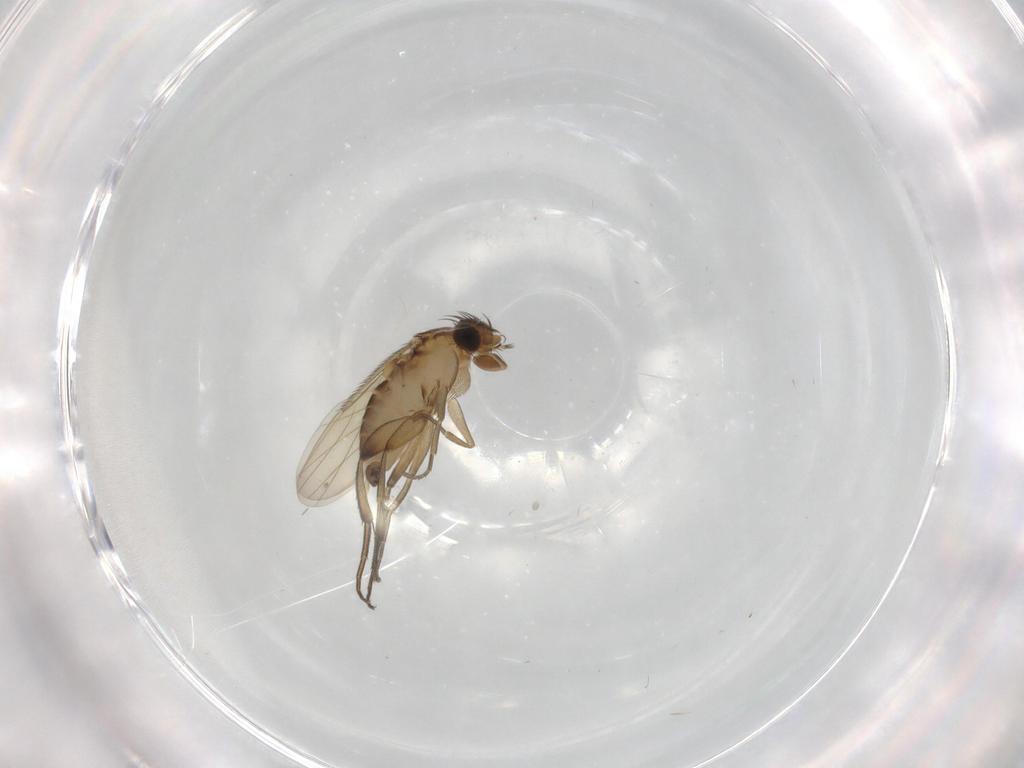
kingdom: Animalia
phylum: Arthropoda
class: Insecta
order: Diptera
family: Phoridae
